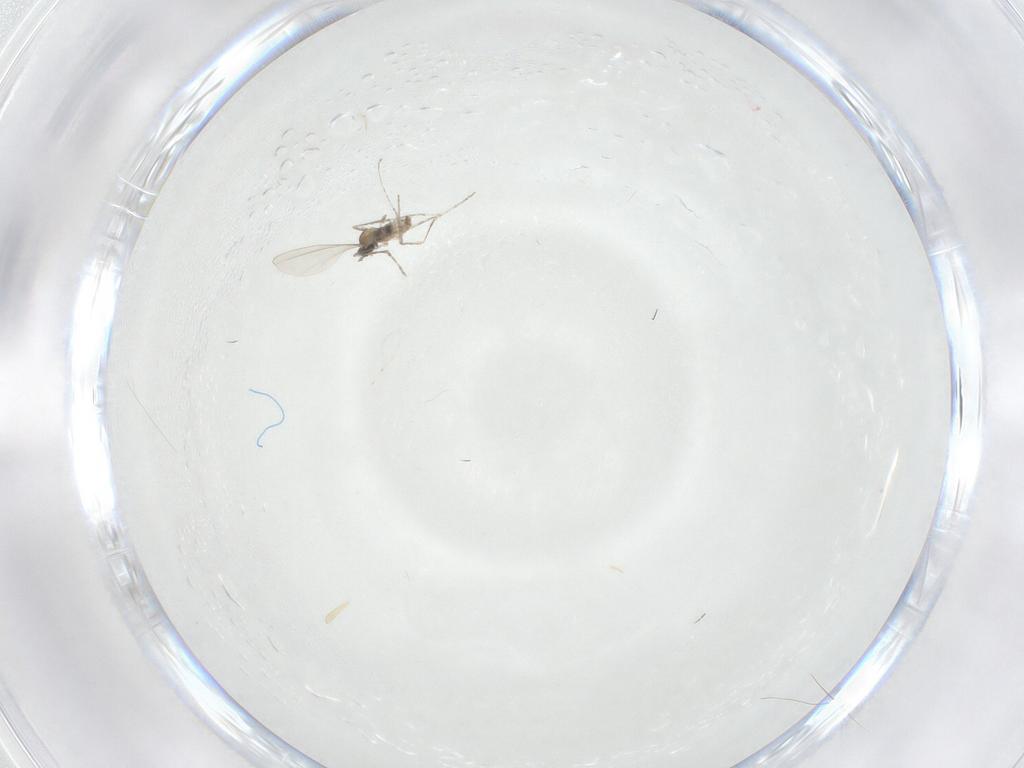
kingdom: Animalia
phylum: Arthropoda
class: Insecta
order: Diptera
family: Cecidomyiidae
